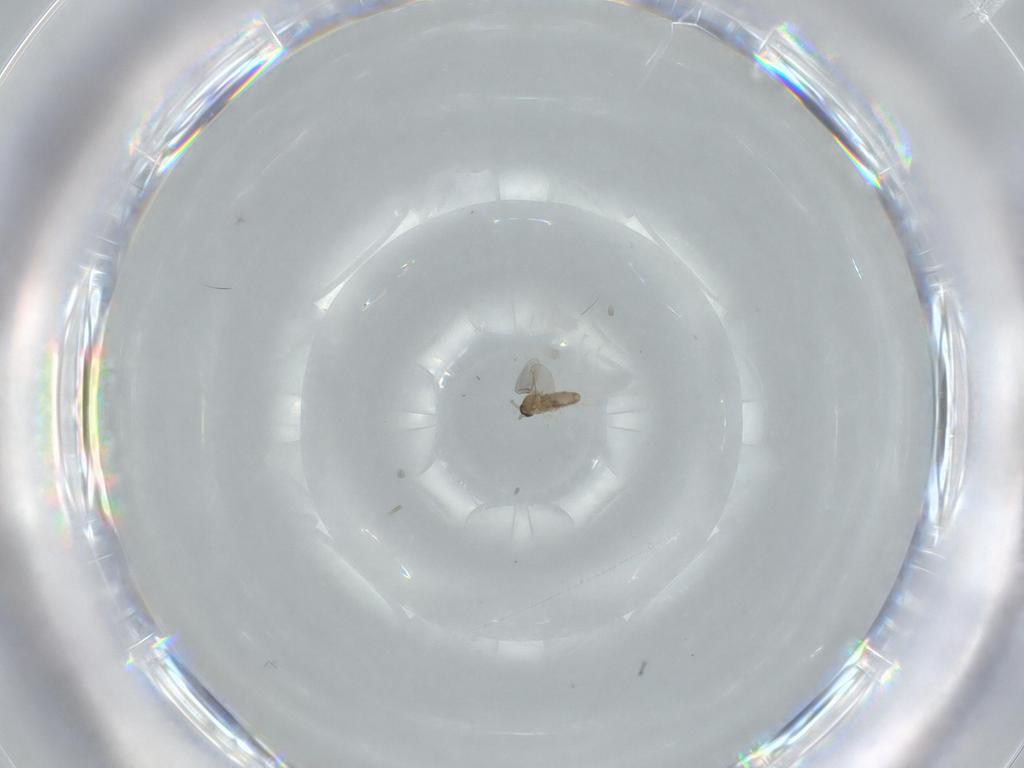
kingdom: Animalia
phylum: Arthropoda
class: Insecta
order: Diptera
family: Cecidomyiidae
